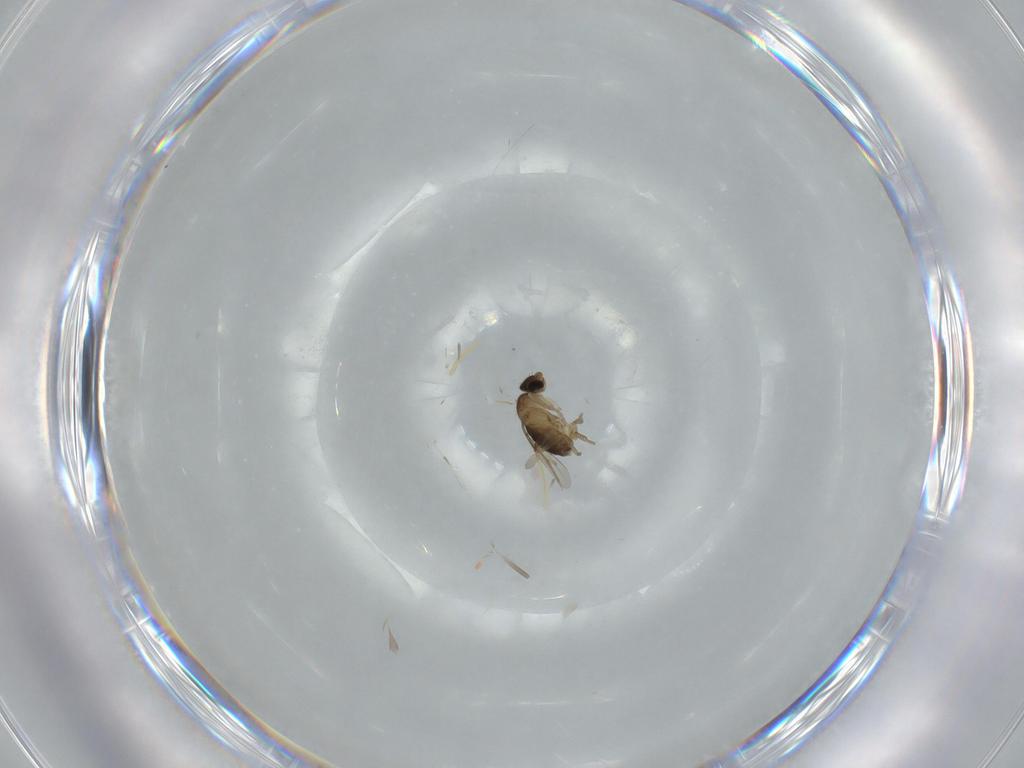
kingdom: Animalia
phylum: Arthropoda
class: Insecta
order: Diptera
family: Phoridae
